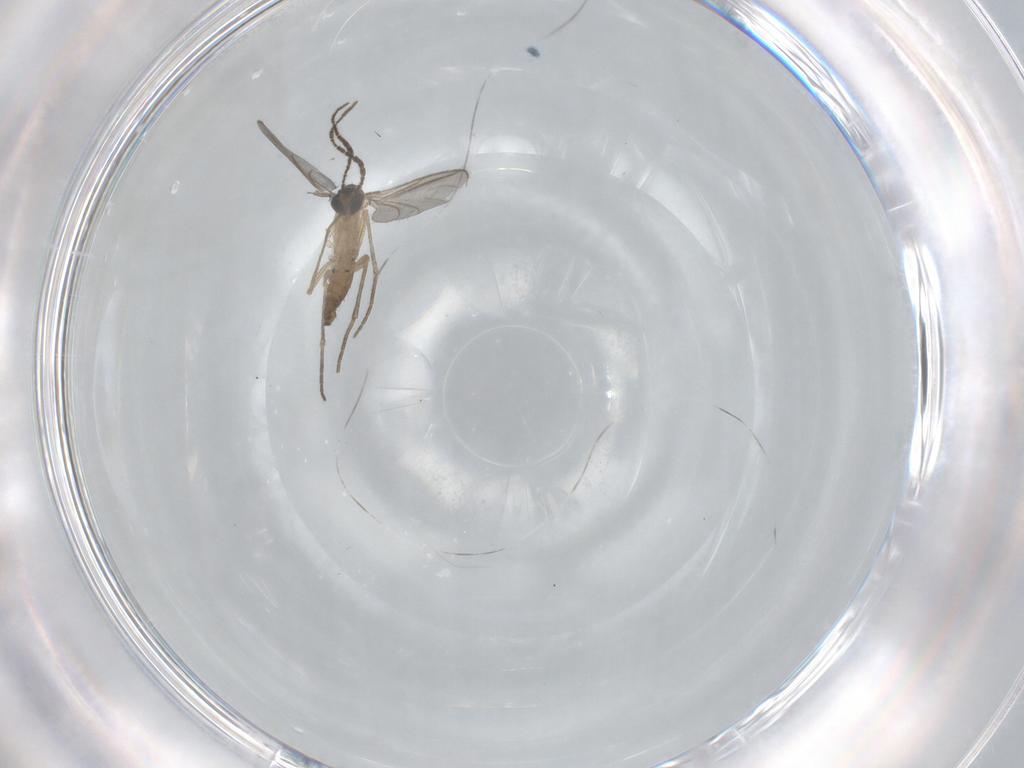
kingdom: Animalia
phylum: Arthropoda
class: Insecta
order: Diptera
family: Sciaridae
